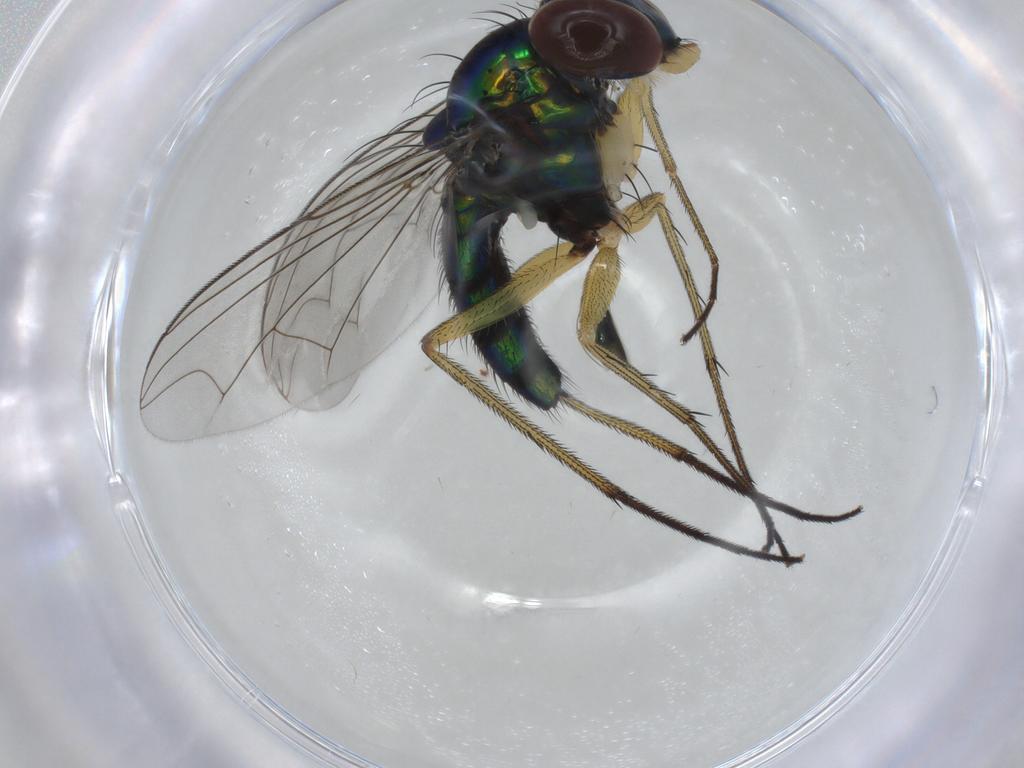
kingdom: Animalia
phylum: Arthropoda
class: Insecta
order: Diptera
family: Dolichopodidae
